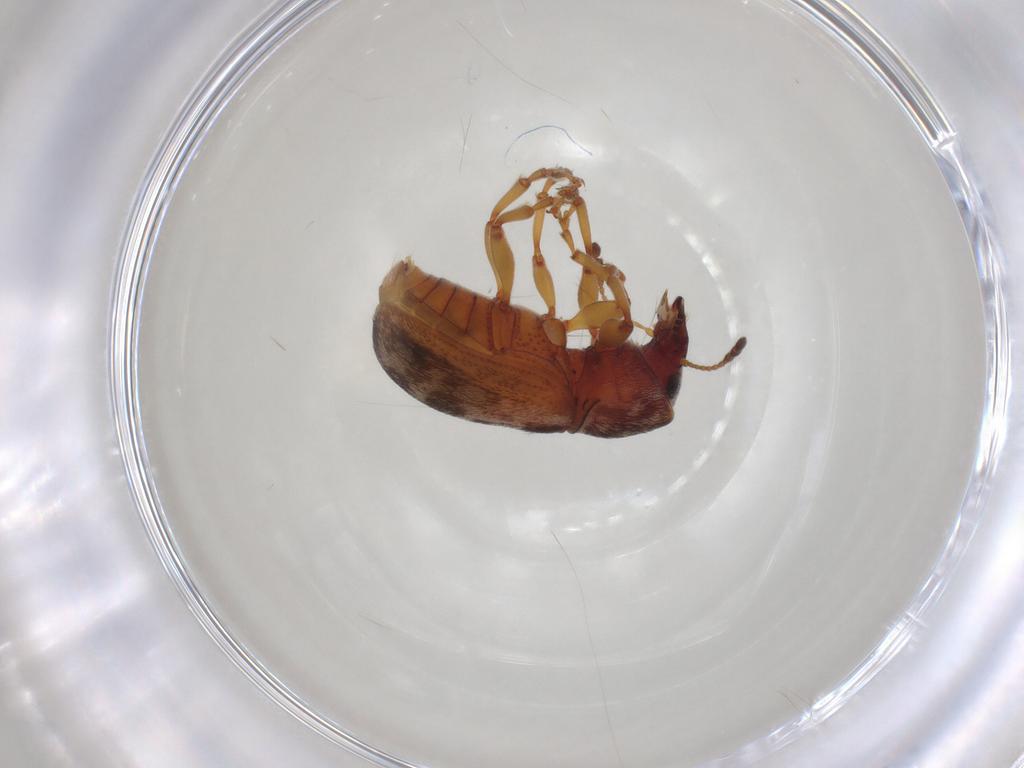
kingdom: Animalia
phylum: Arthropoda
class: Insecta
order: Coleoptera
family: Anthribidae
